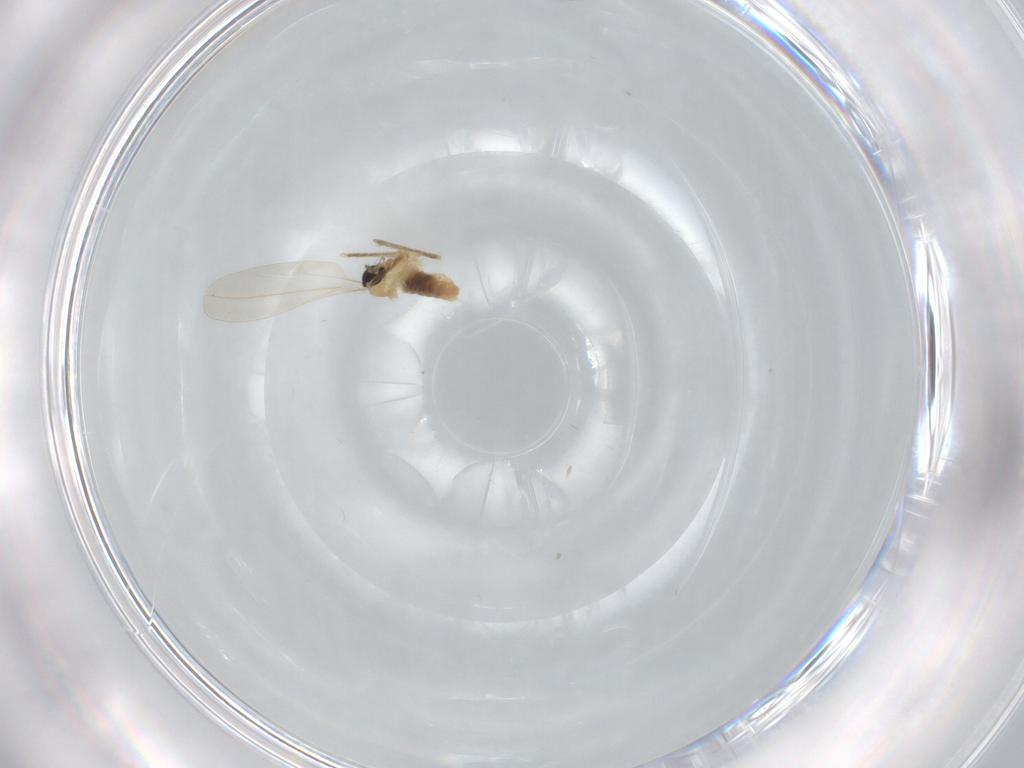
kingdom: Animalia
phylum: Arthropoda
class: Insecta
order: Diptera
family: Cecidomyiidae
